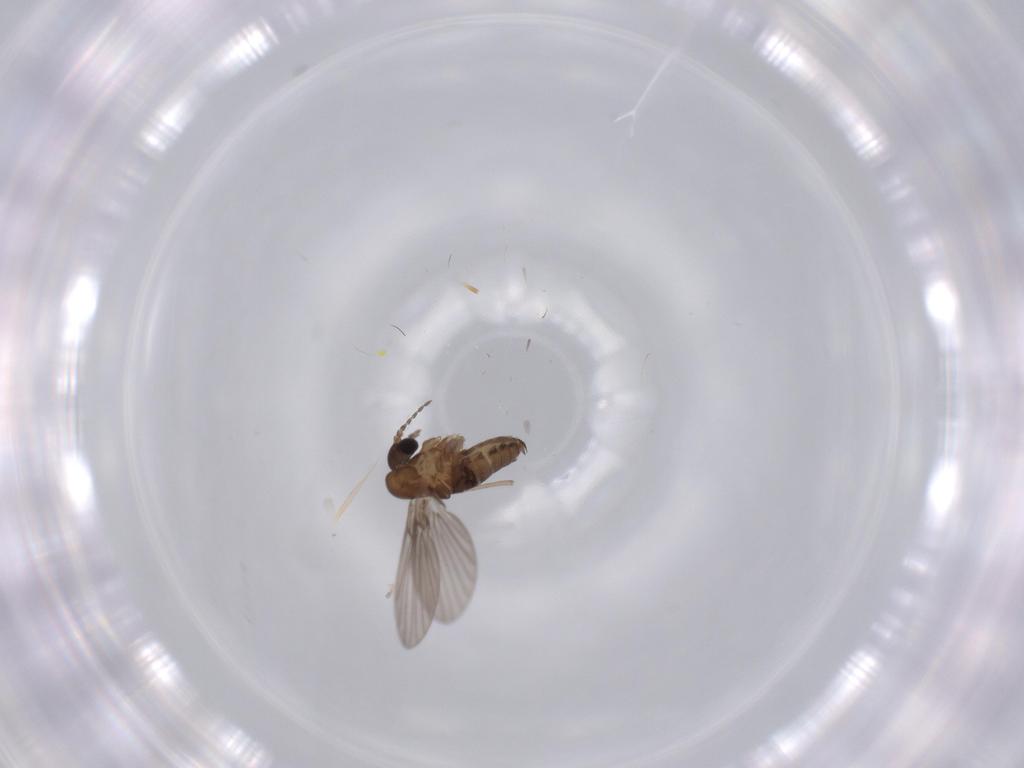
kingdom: Animalia
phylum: Arthropoda
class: Insecta
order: Diptera
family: Psychodidae
